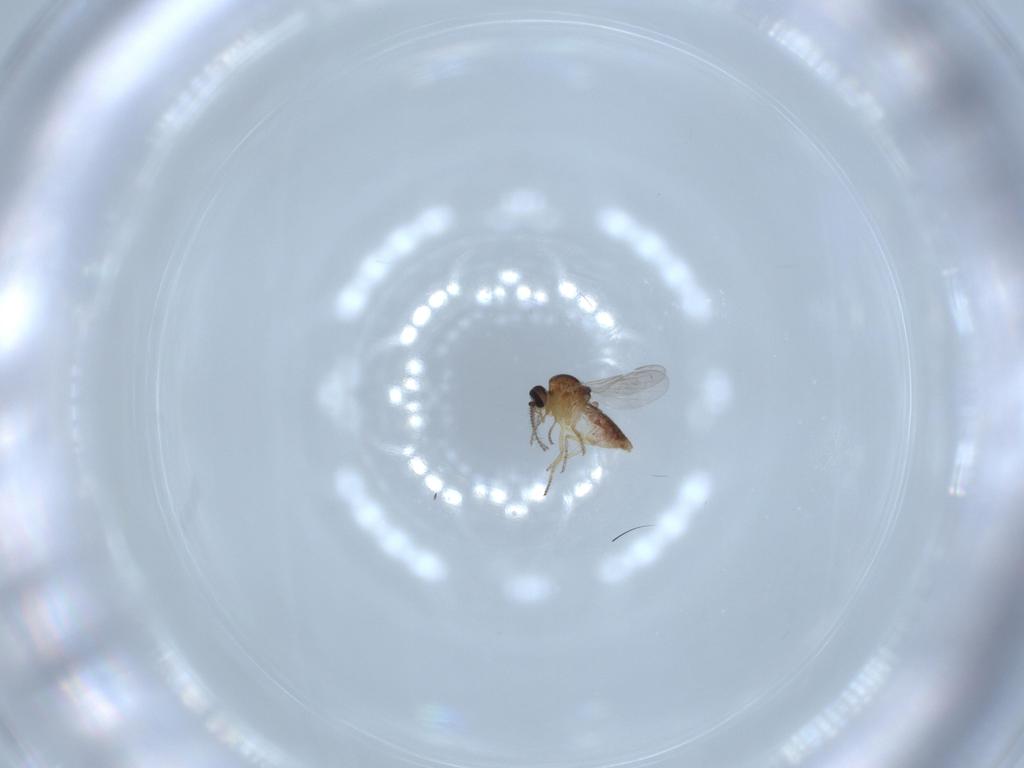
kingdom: Animalia
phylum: Arthropoda
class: Insecta
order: Diptera
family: Ceratopogonidae
